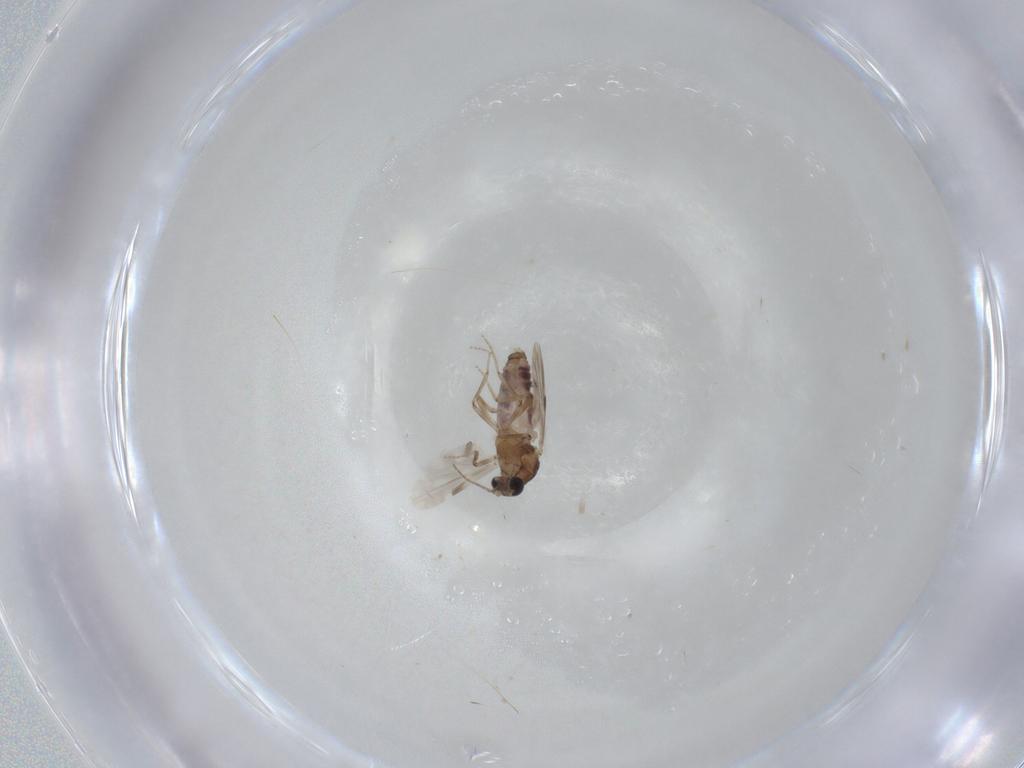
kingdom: Animalia
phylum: Arthropoda
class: Insecta
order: Diptera
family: Ceratopogonidae
